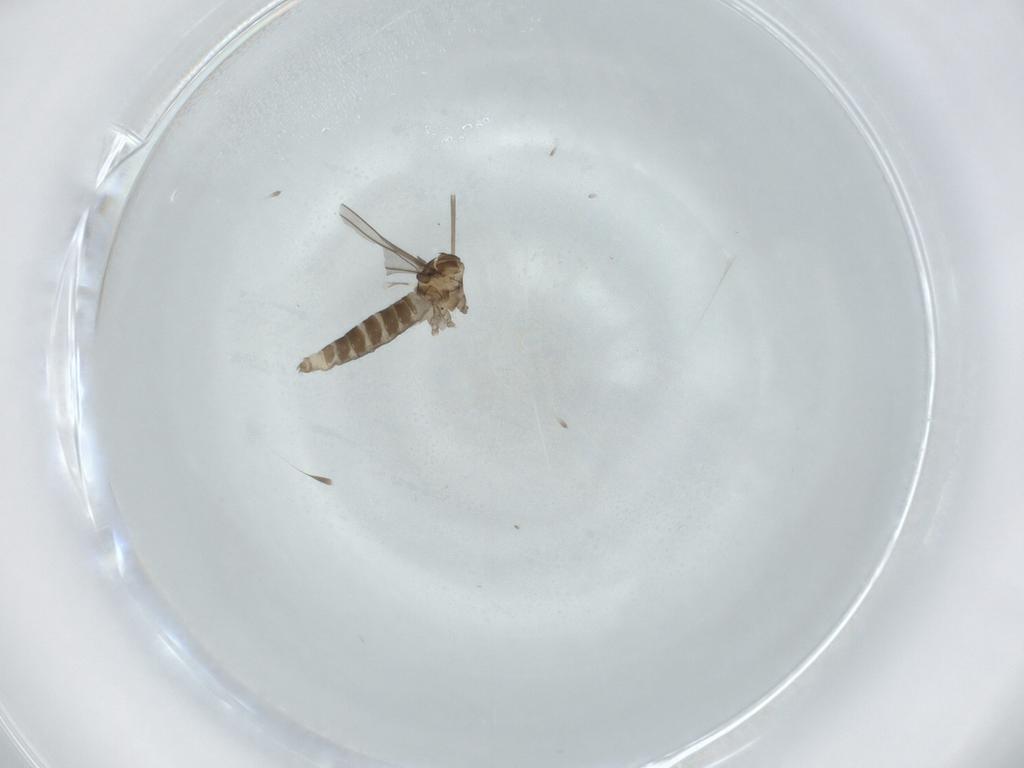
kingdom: Animalia
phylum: Arthropoda
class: Insecta
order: Diptera
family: Cecidomyiidae
